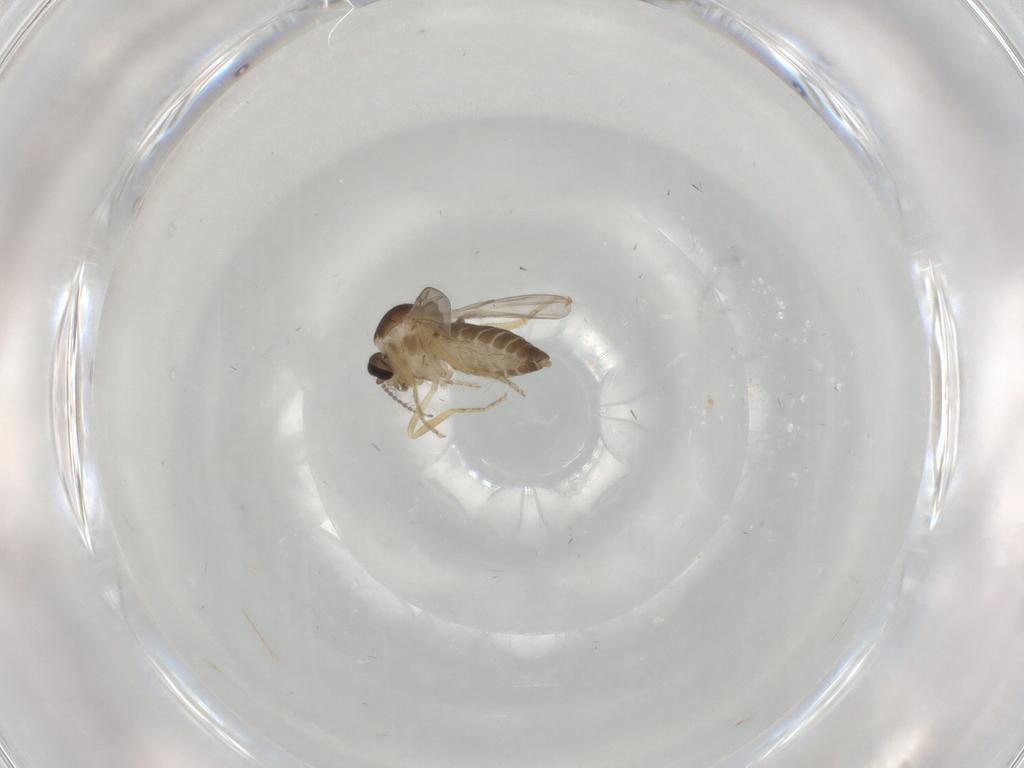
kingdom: Animalia
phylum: Arthropoda
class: Insecta
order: Diptera
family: Ceratopogonidae
